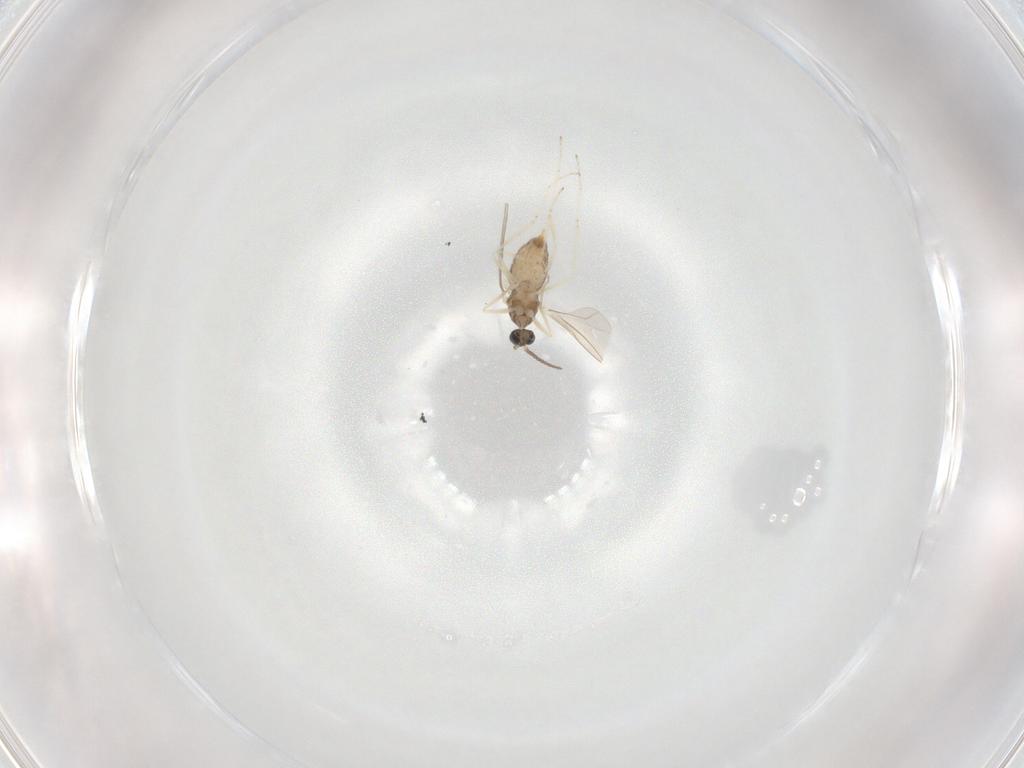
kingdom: Animalia
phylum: Arthropoda
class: Insecta
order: Diptera
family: Cecidomyiidae
